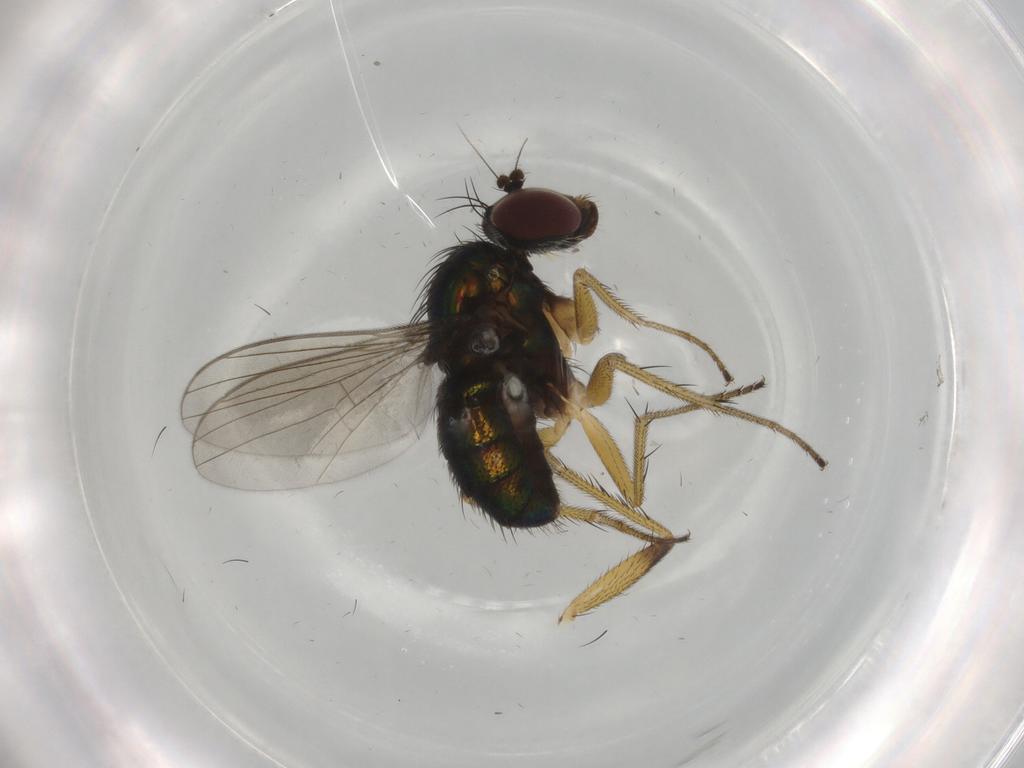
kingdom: Animalia
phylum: Arthropoda
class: Insecta
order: Diptera
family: Dolichopodidae
